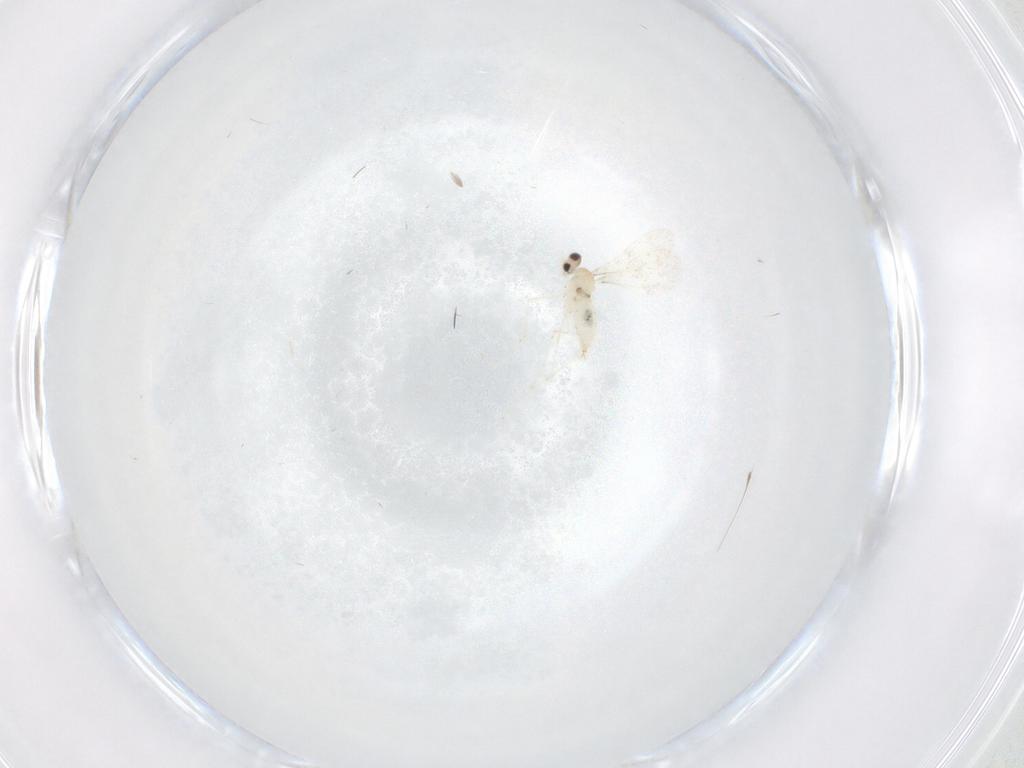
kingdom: Animalia
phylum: Arthropoda
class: Insecta
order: Diptera
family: Cecidomyiidae
